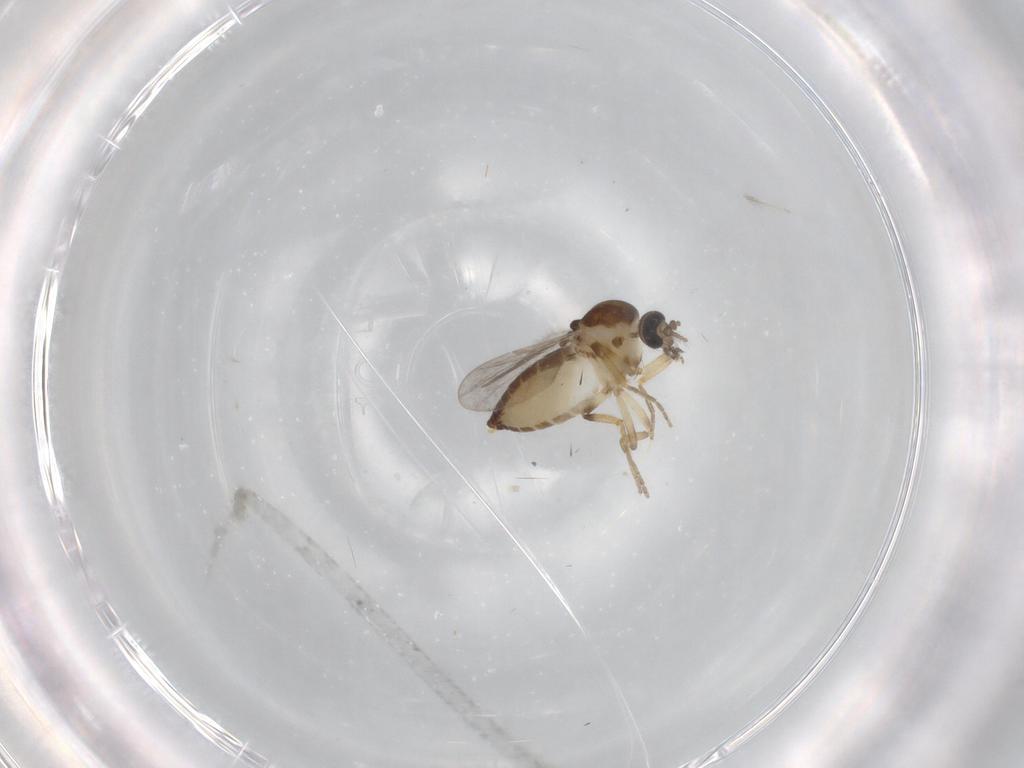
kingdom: Animalia
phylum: Arthropoda
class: Insecta
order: Diptera
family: Ceratopogonidae
